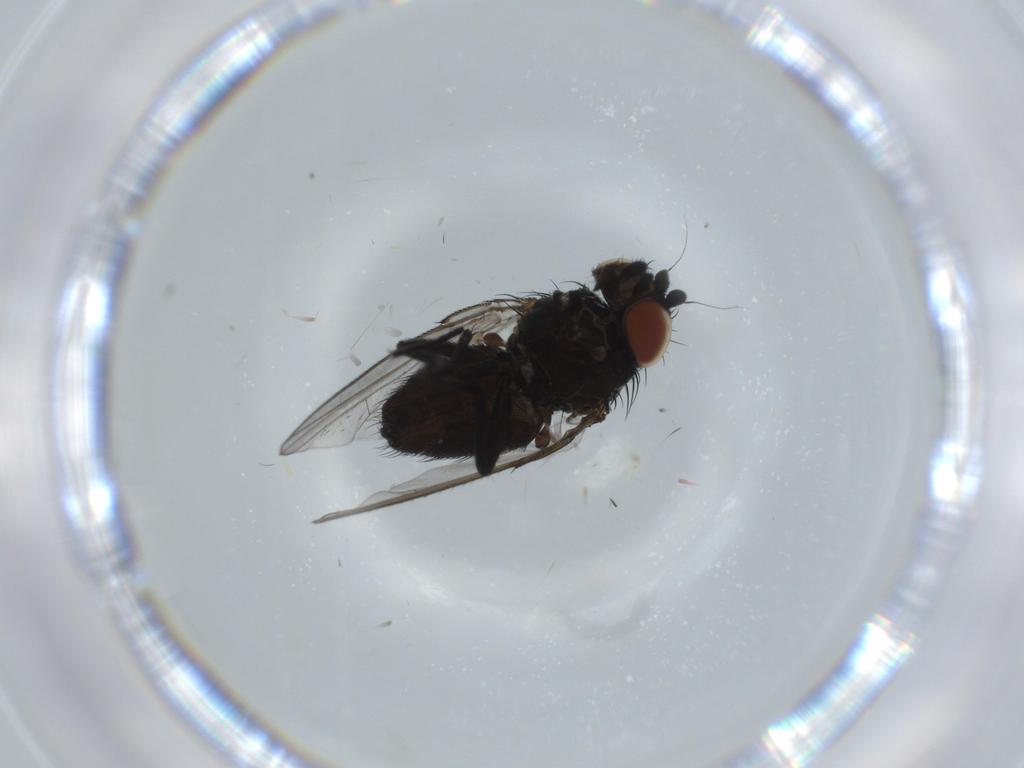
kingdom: Animalia
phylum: Arthropoda
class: Insecta
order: Diptera
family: Milichiidae
